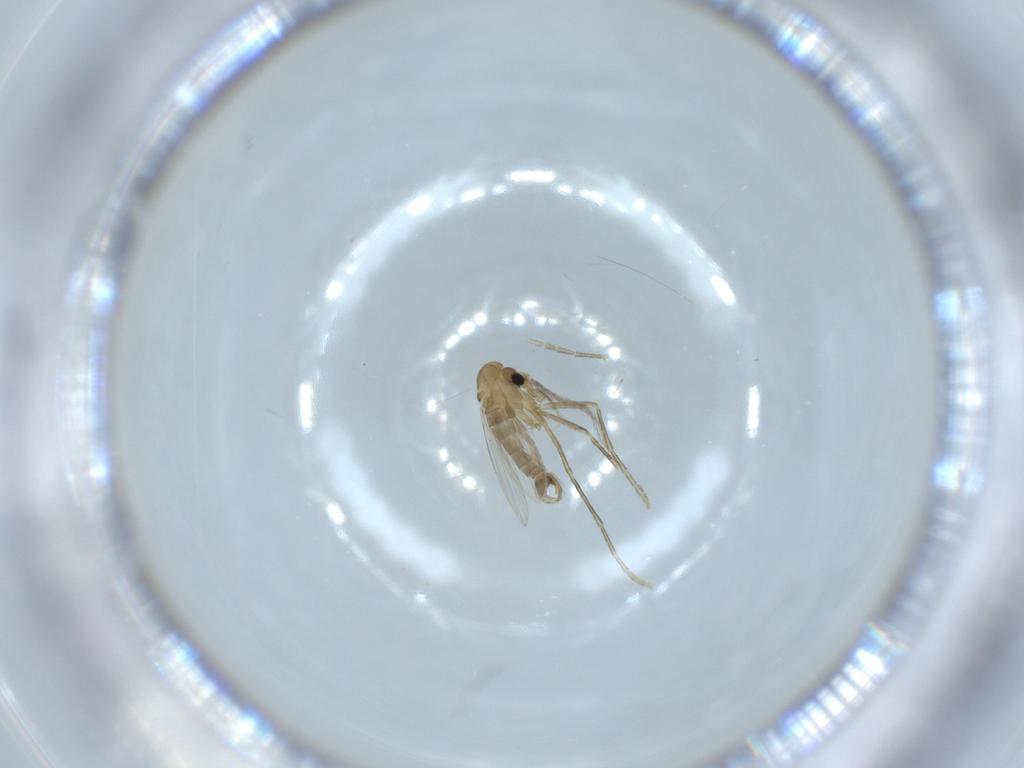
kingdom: Animalia
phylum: Arthropoda
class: Insecta
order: Diptera
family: Psychodidae
